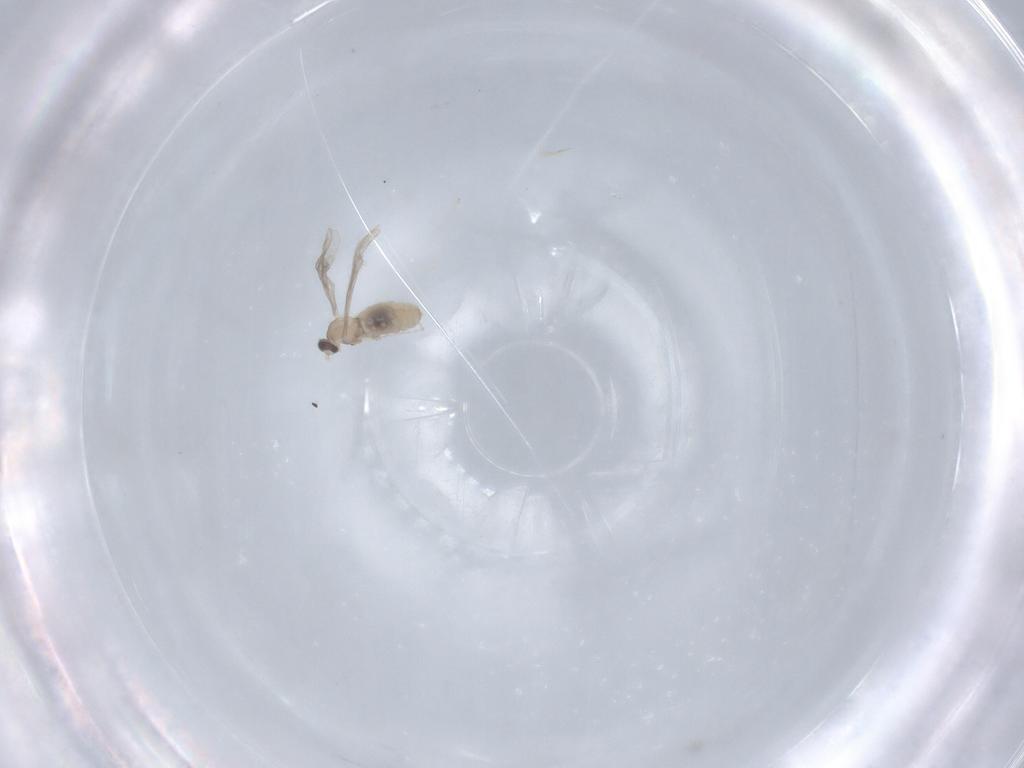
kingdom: Animalia
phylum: Arthropoda
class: Insecta
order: Diptera
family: Cecidomyiidae
